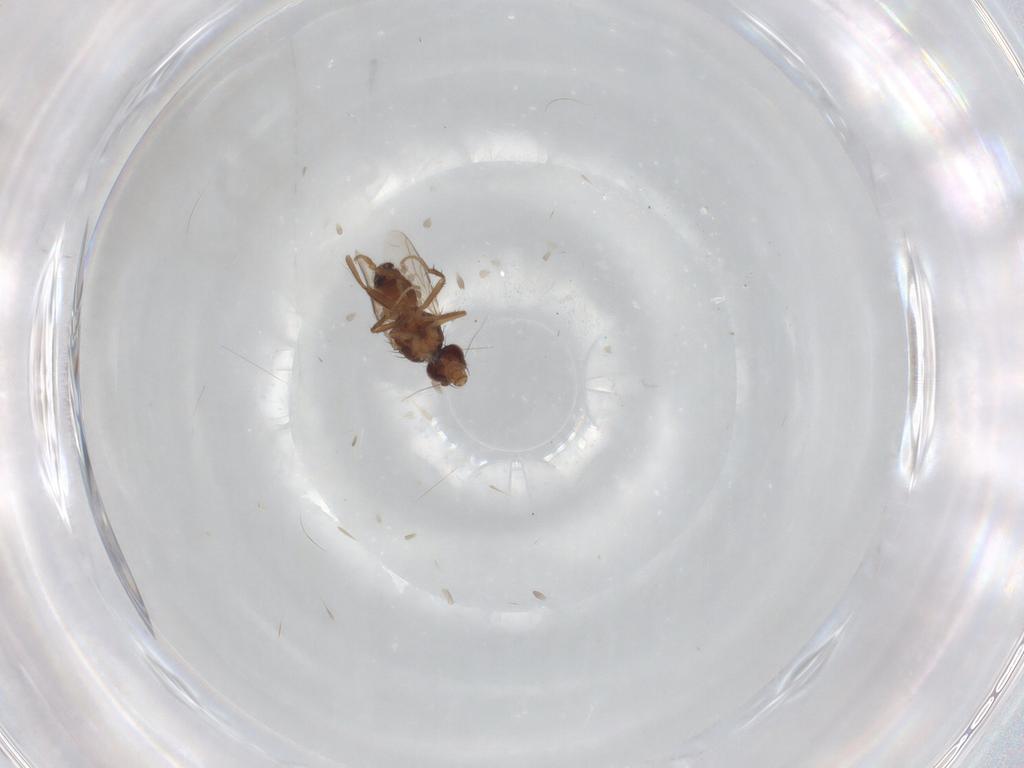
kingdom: Animalia
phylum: Arthropoda
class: Insecta
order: Diptera
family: Sphaeroceridae
